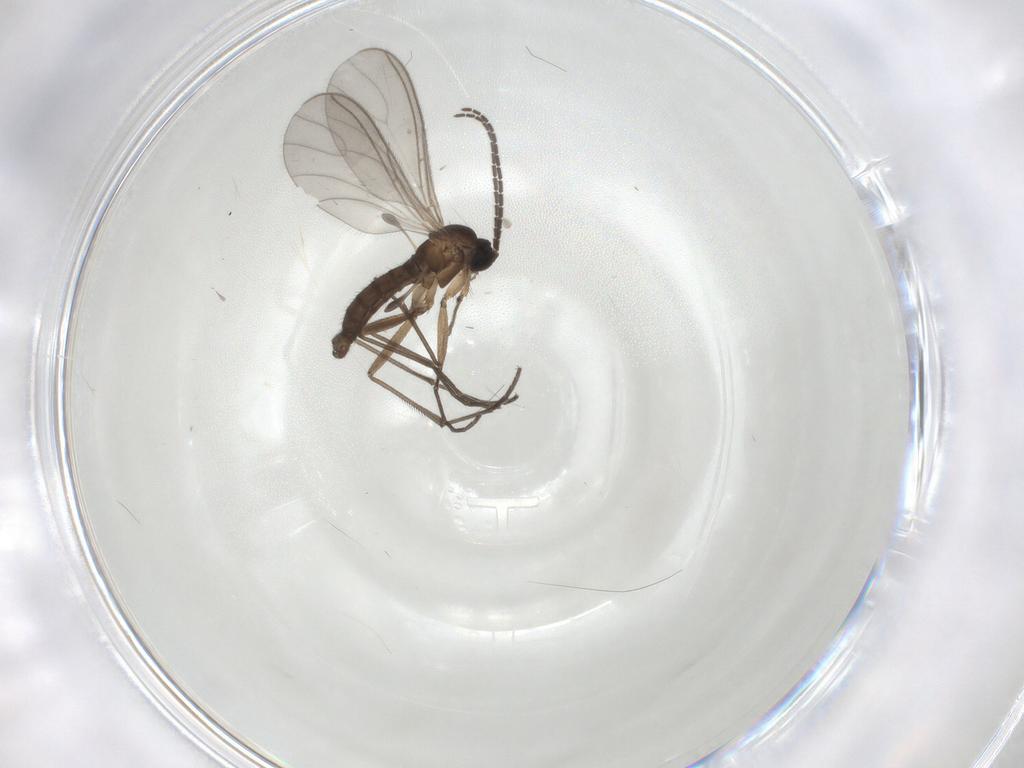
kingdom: Animalia
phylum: Arthropoda
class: Insecta
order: Diptera
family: Sciaridae
